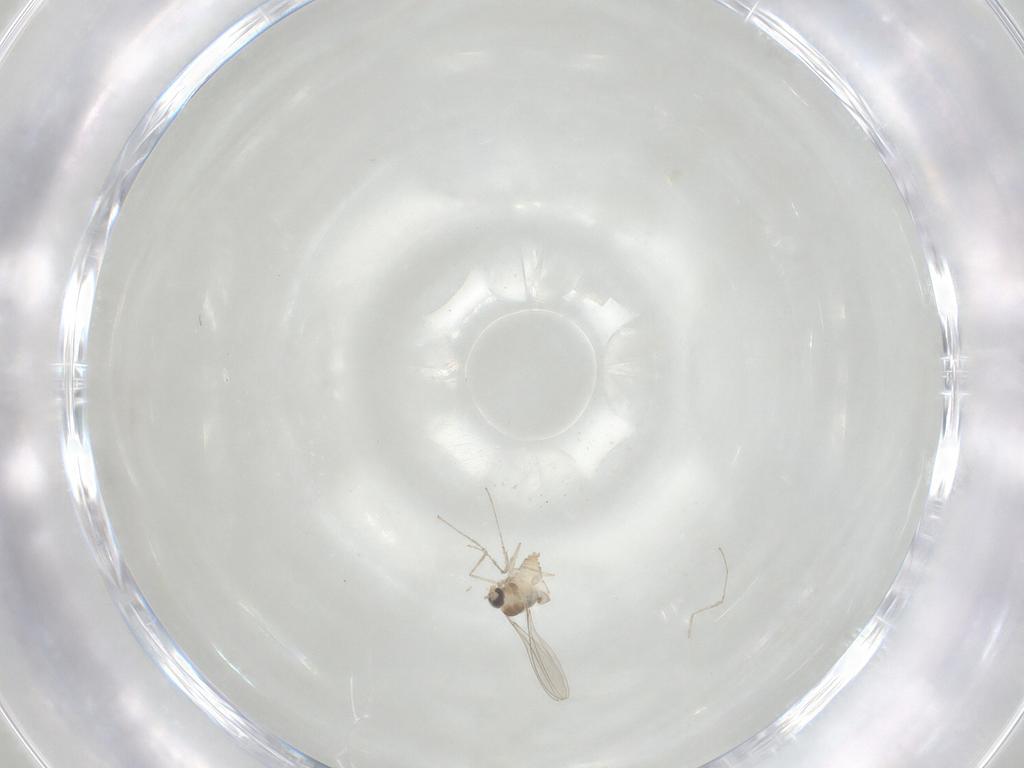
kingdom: Animalia
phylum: Arthropoda
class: Insecta
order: Diptera
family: Cecidomyiidae
